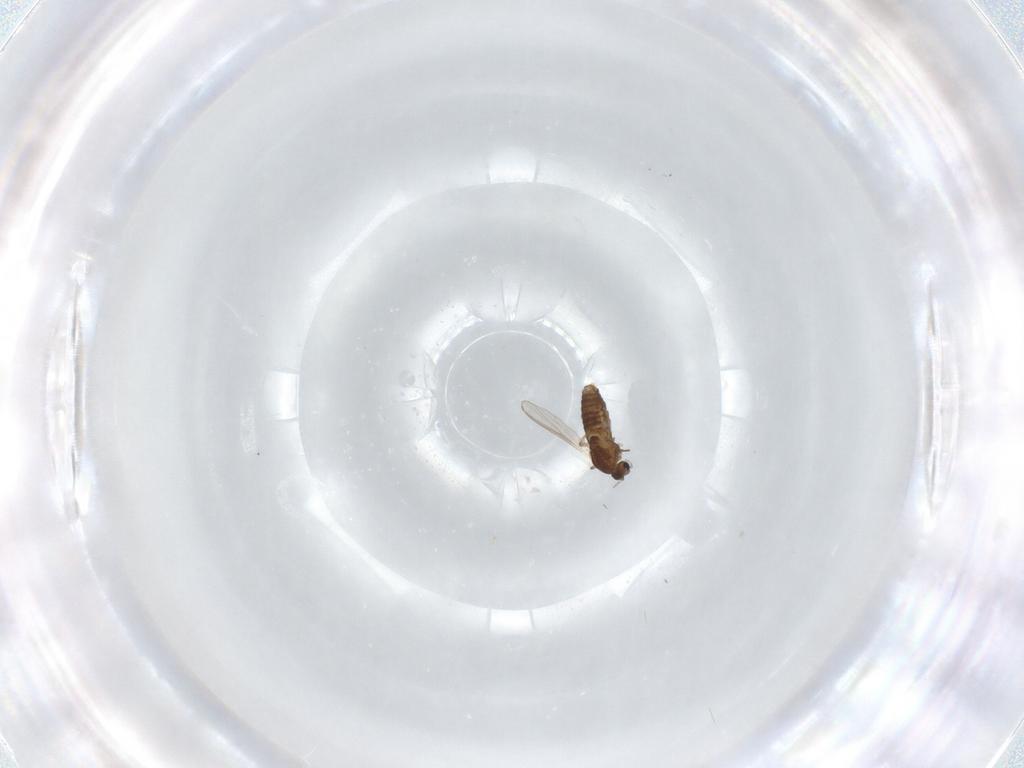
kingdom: Animalia
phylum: Arthropoda
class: Insecta
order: Diptera
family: Chironomidae
